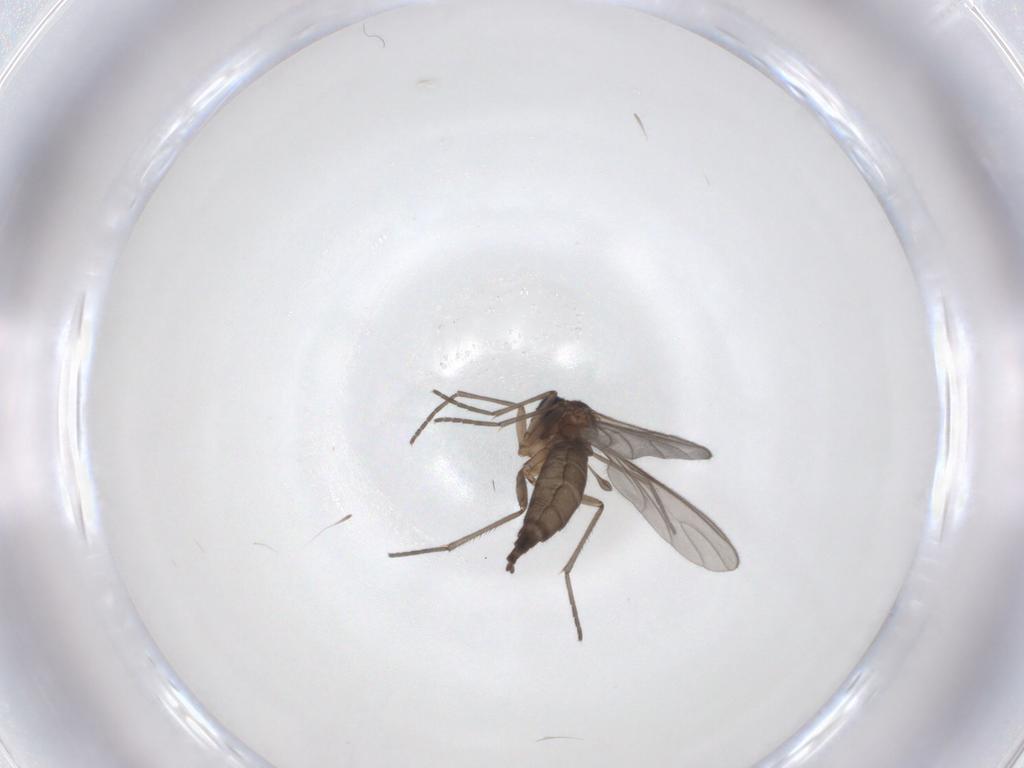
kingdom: Animalia
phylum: Arthropoda
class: Insecta
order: Diptera
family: Sciaridae
